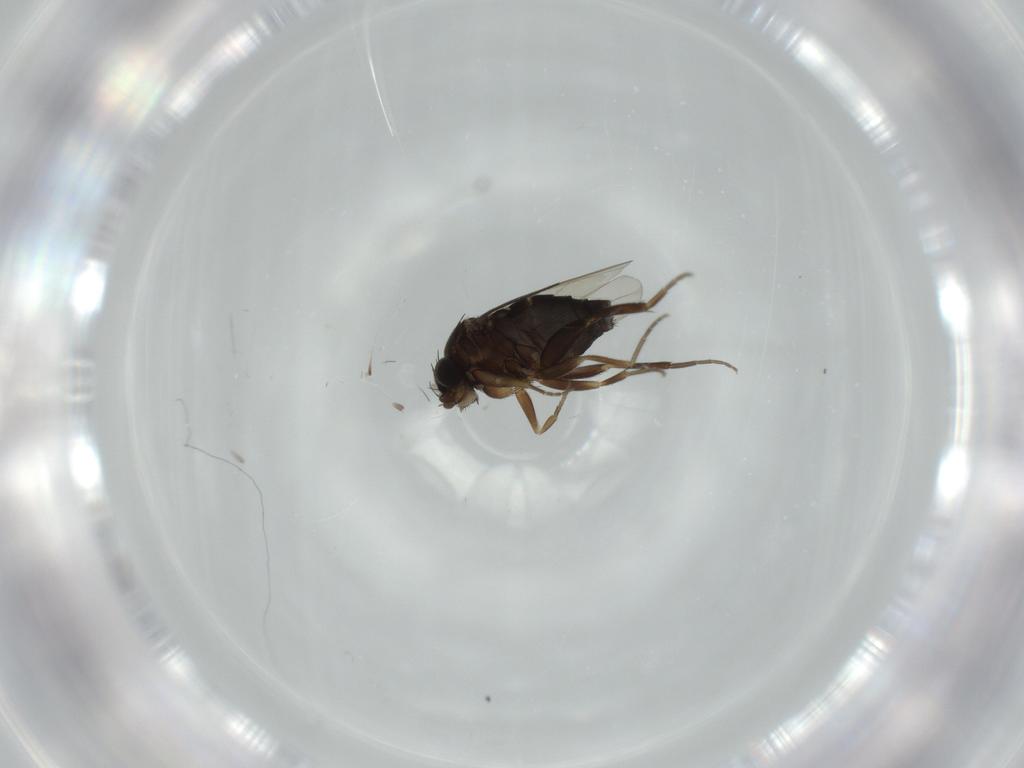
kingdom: Animalia
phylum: Arthropoda
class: Insecta
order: Diptera
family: Phoridae
